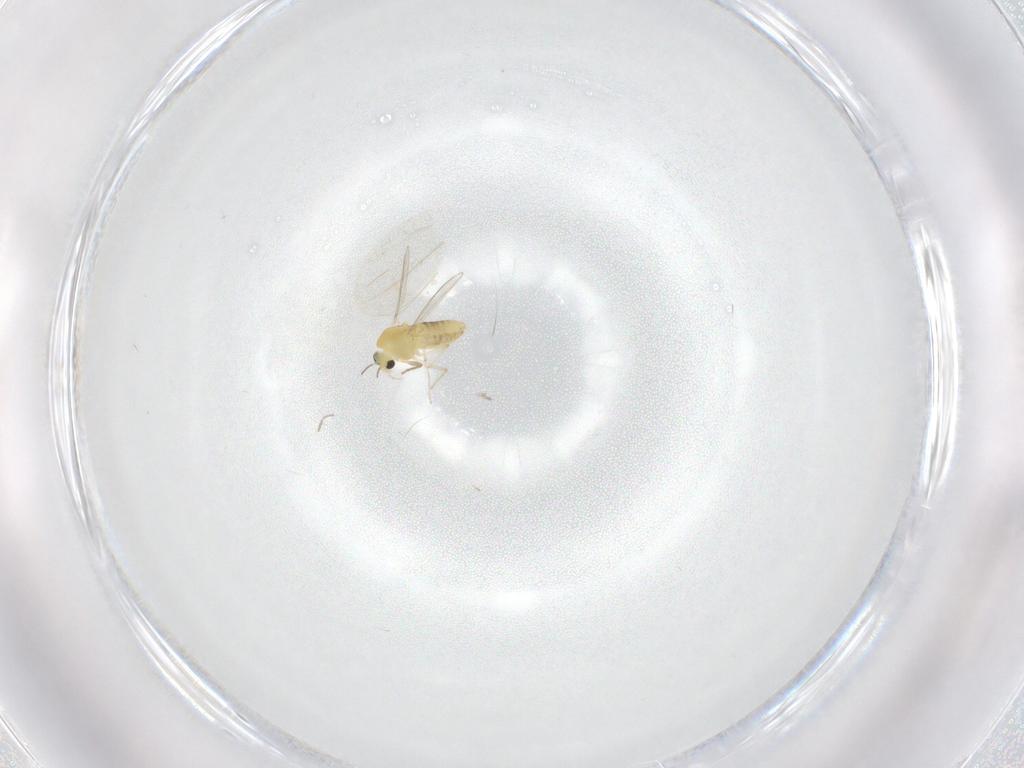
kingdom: Animalia
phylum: Arthropoda
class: Insecta
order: Diptera
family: Chironomidae
